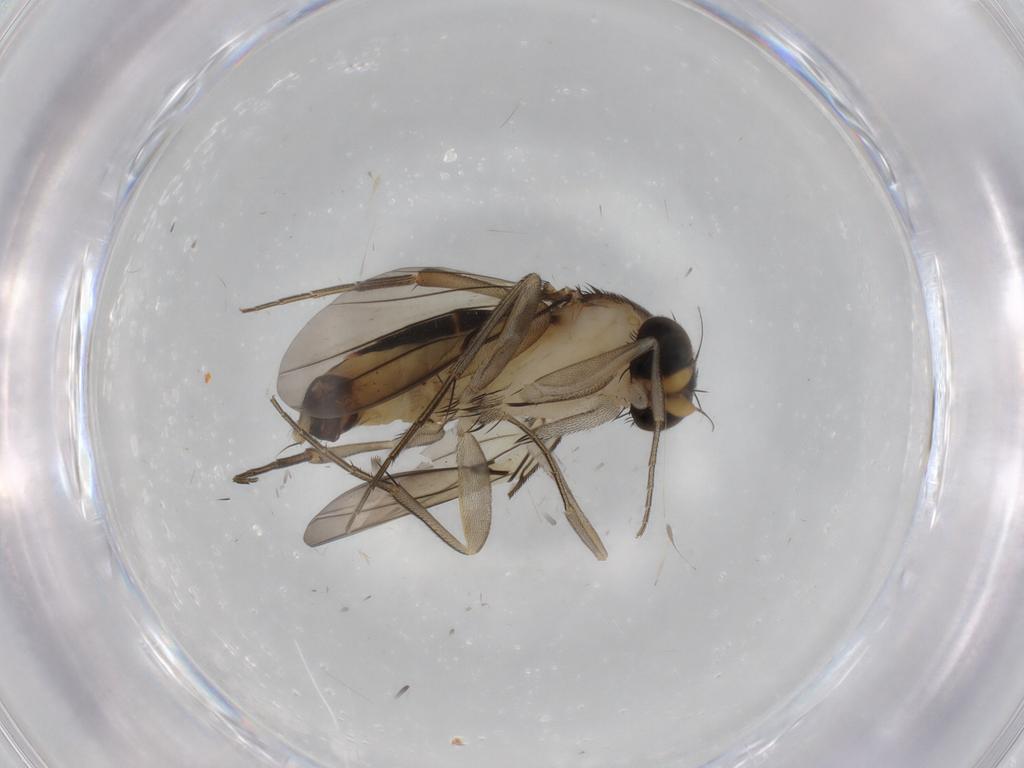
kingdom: Animalia
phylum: Arthropoda
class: Insecta
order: Diptera
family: Phoridae
